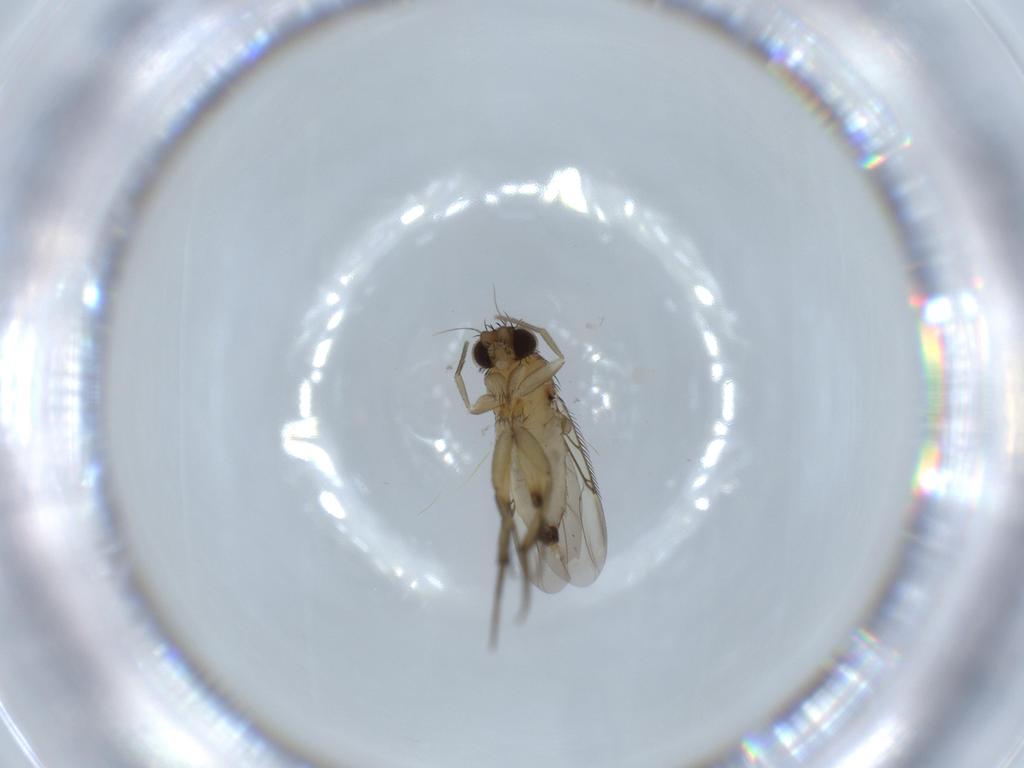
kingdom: Animalia
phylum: Arthropoda
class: Insecta
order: Diptera
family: Phoridae
